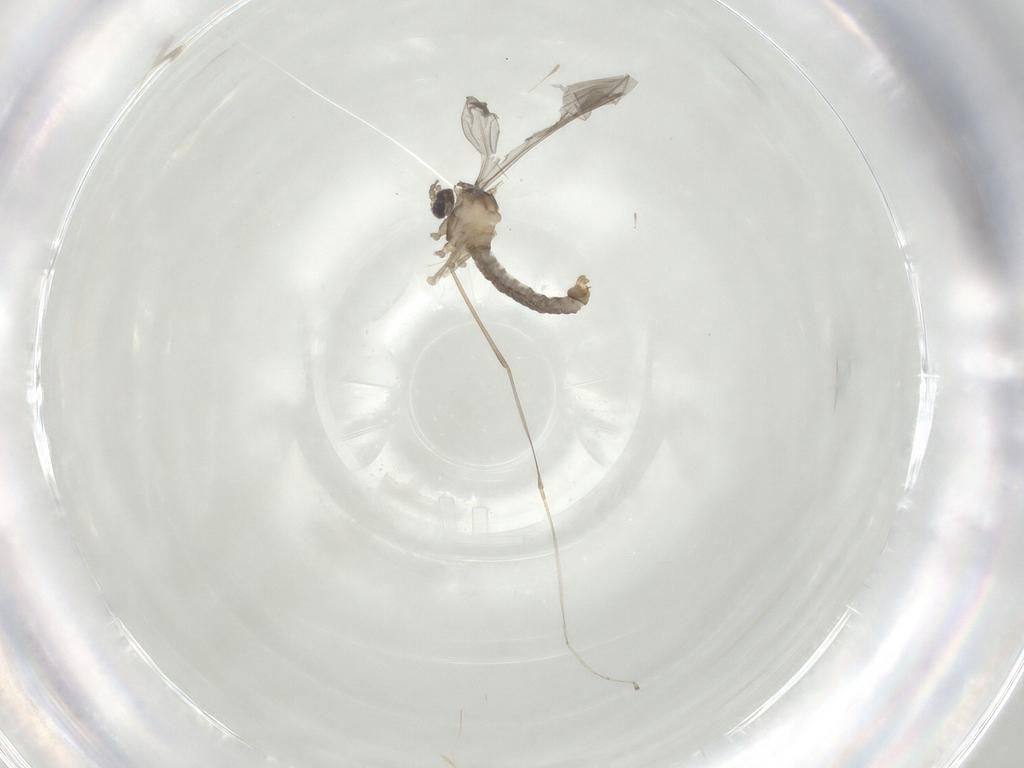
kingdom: Animalia
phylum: Arthropoda
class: Insecta
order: Diptera
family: Cecidomyiidae
